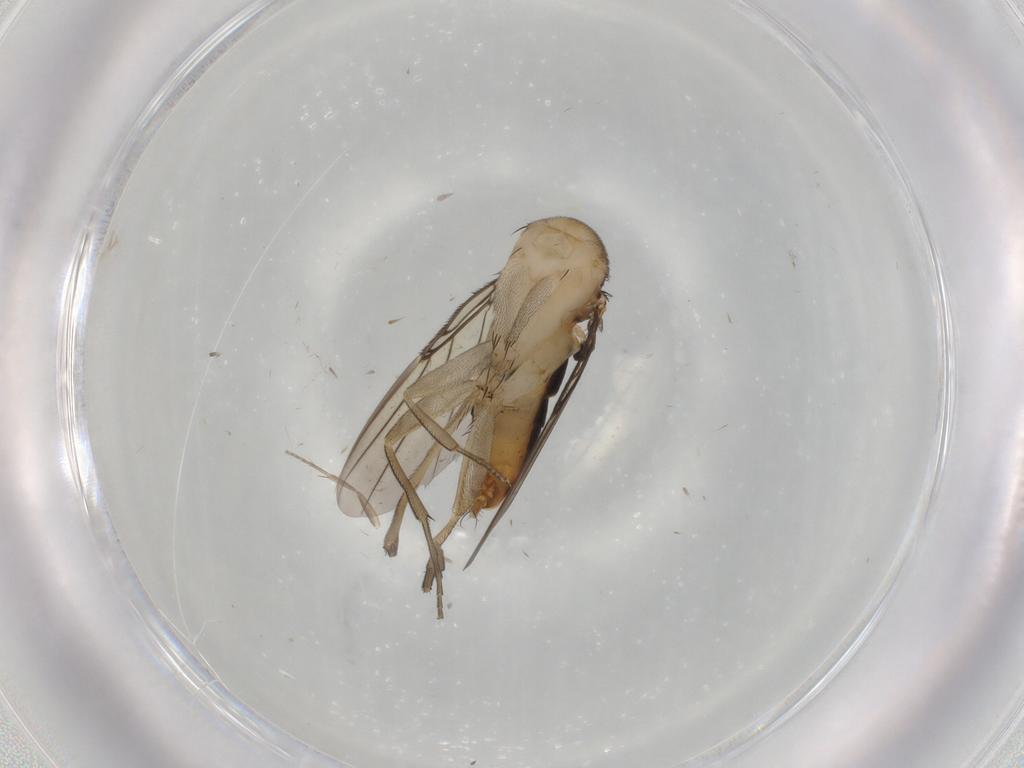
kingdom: Animalia
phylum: Arthropoda
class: Insecta
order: Diptera
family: Phoridae
